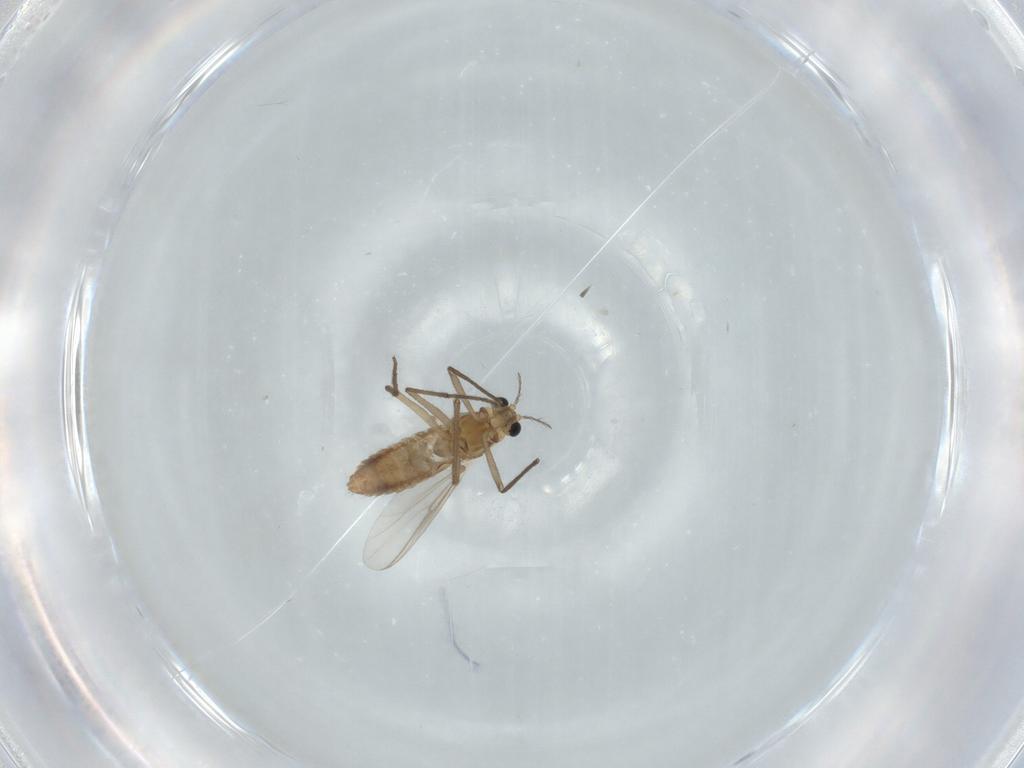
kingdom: Animalia
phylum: Arthropoda
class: Insecta
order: Diptera
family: Chironomidae
